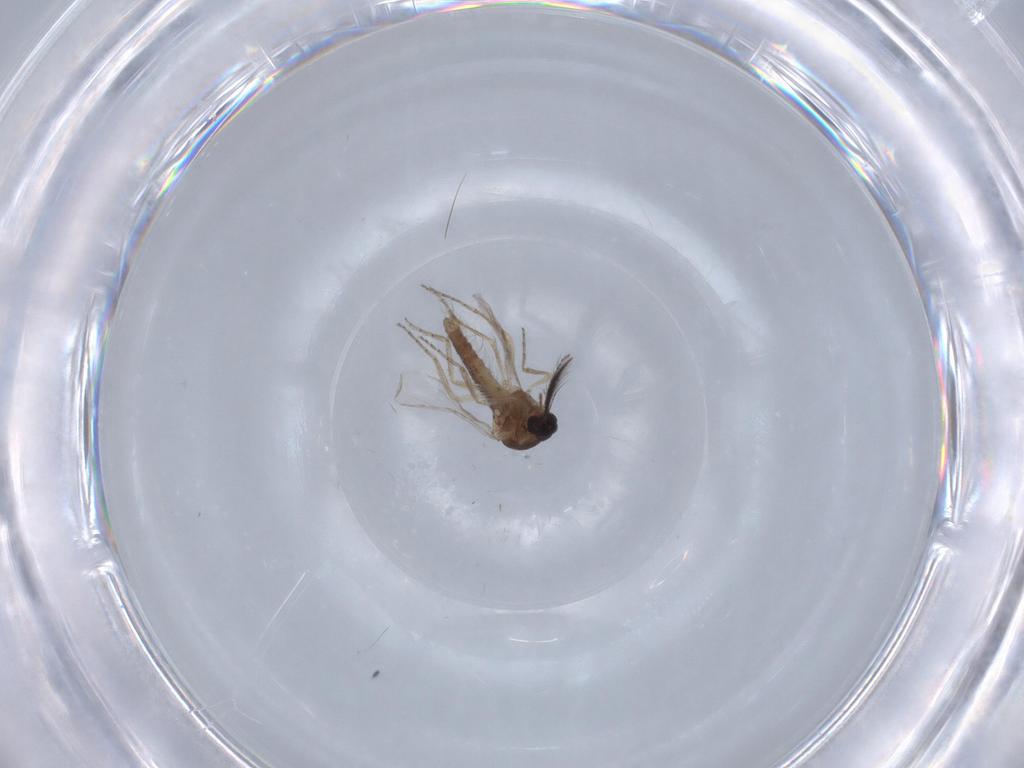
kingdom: Animalia
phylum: Arthropoda
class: Insecta
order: Diptera
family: Ceratopogonidae
